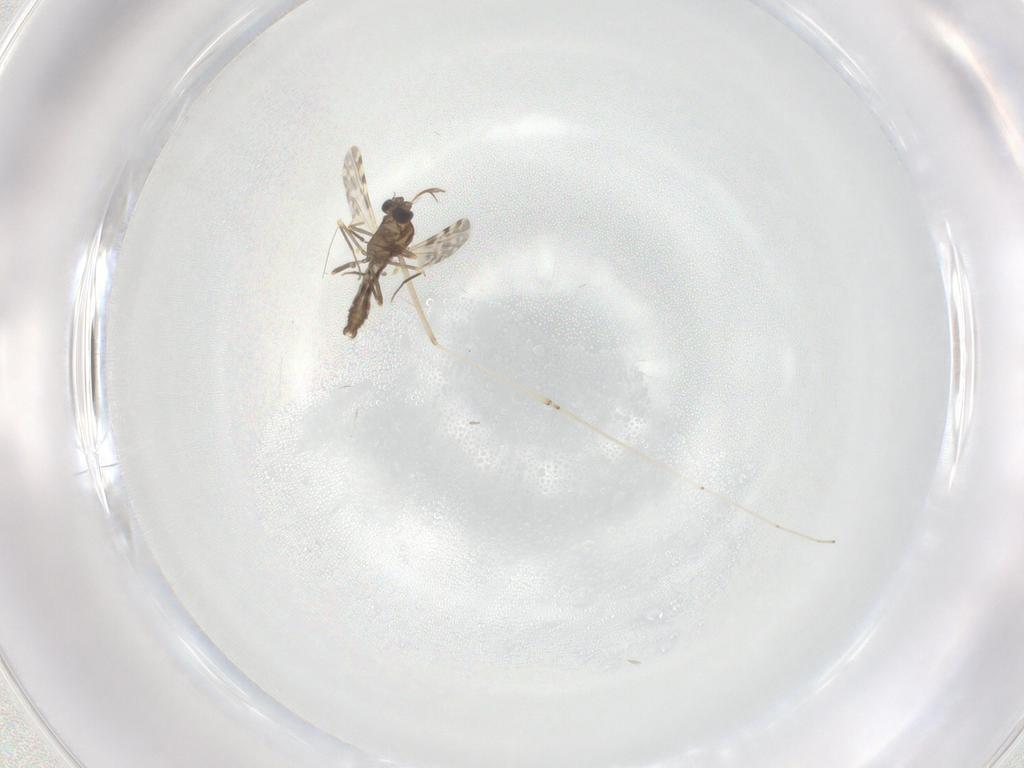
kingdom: Animalia
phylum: Arthropoda
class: Insecta
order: Diptera
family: Ceratopogonidae
